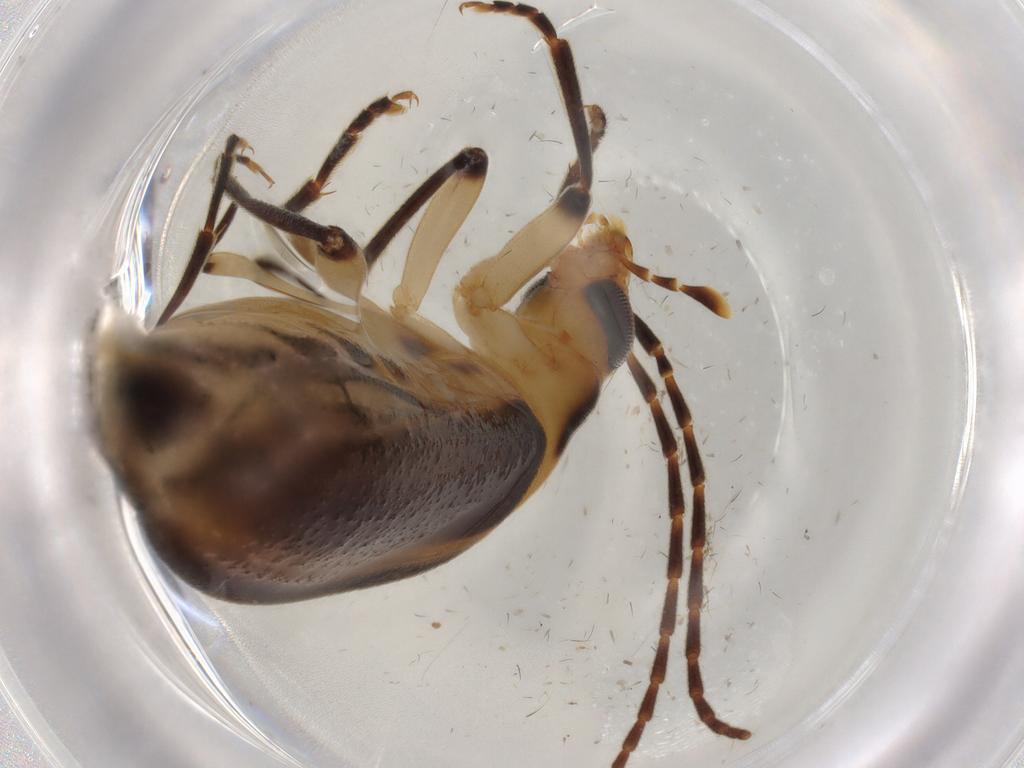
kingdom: Animalia
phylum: Arthropoda
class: Insecta
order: Coleoptera
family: Oedemeridae
